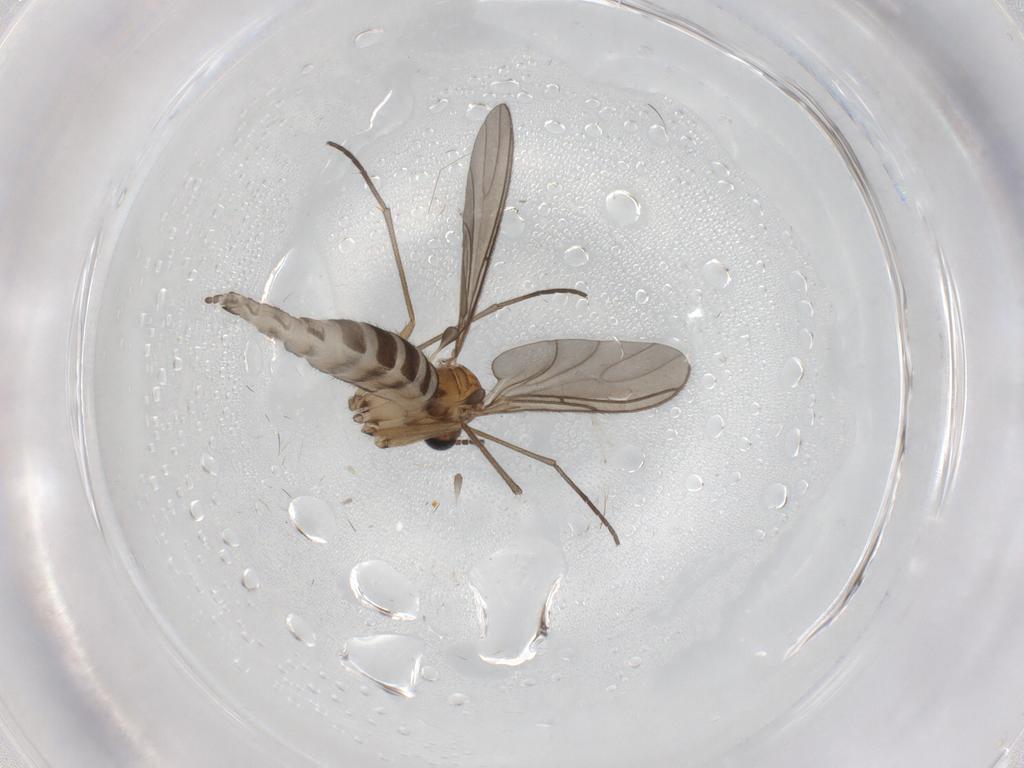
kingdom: Animalia
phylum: Arthropoda
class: Insecta
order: Diptera
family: Sciaridae
